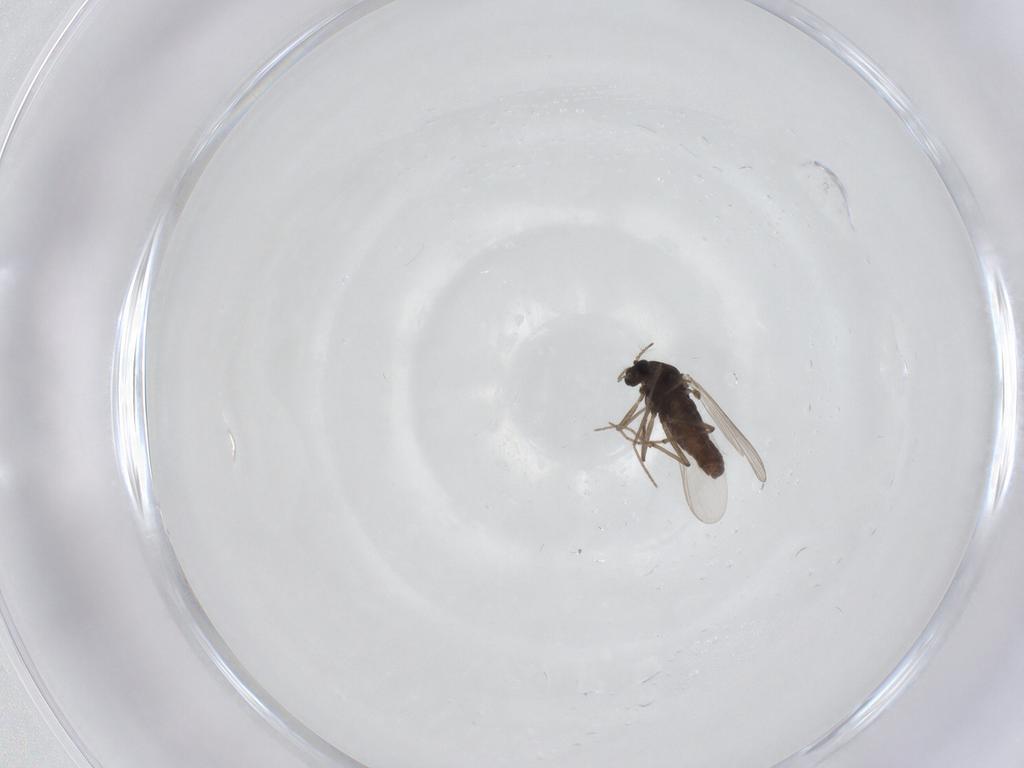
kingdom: Animalia
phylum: Arthropoda
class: Insecta
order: Diptera
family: Chironomidae
